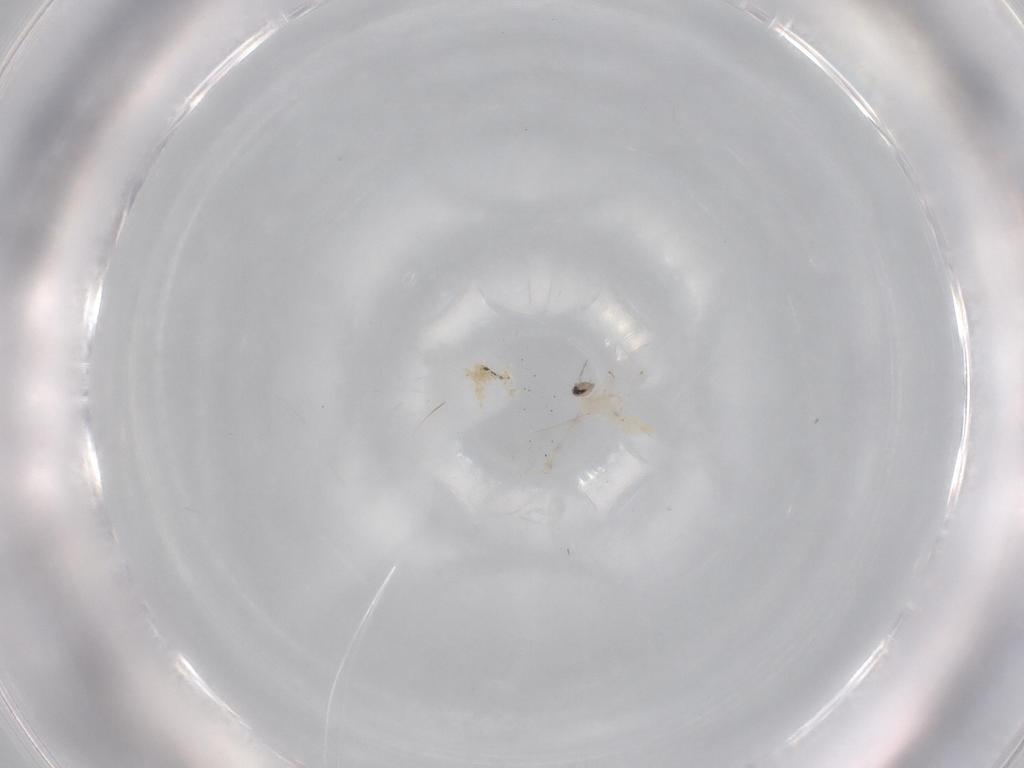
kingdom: Animalia
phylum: Arthropoda
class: Insecta
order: Diptera
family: Cecidomyiidae
